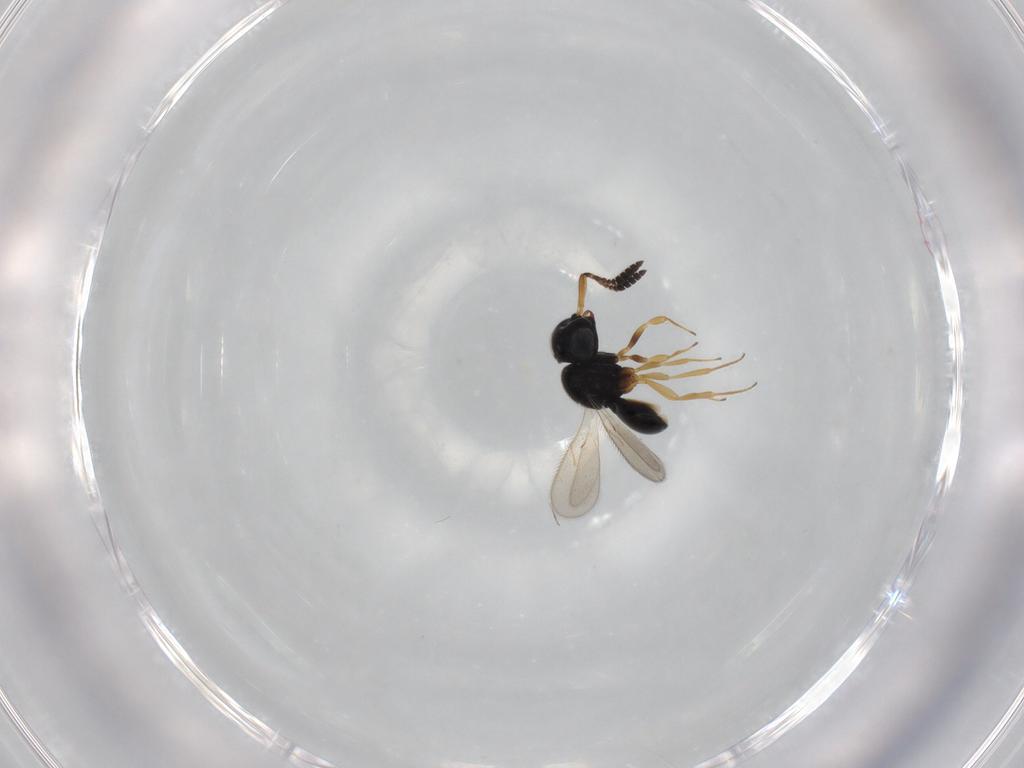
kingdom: Animalia
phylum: Arthropoda
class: Insecta
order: Hymenoptera
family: Scelionidae
